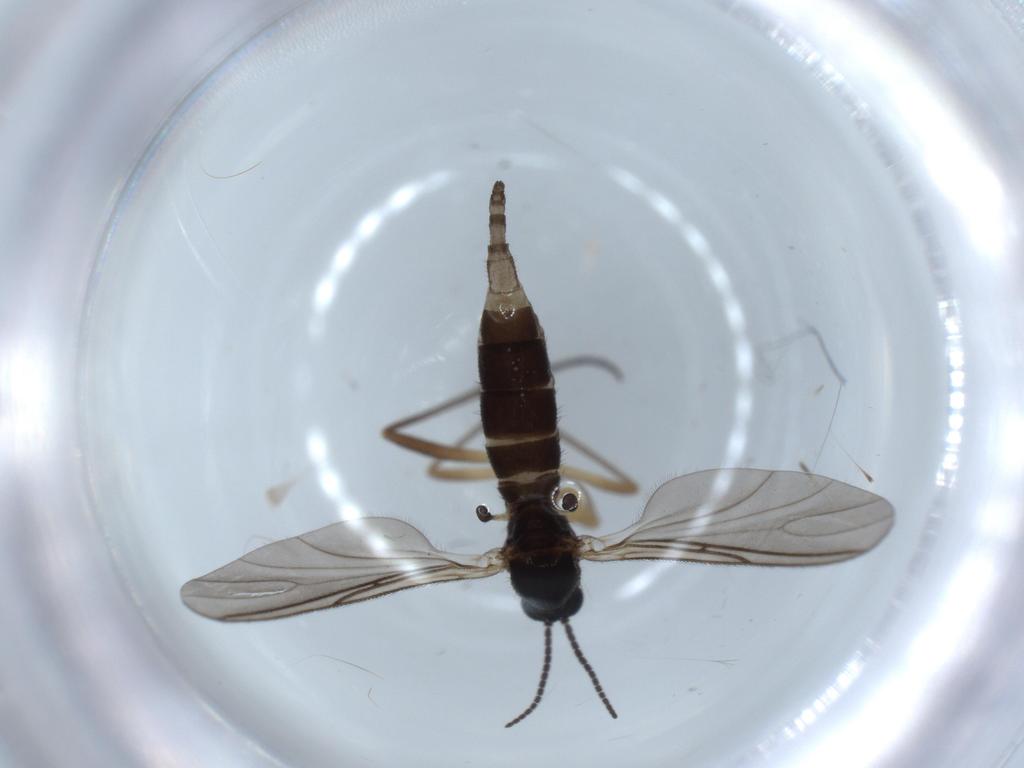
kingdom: Animalia
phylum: Arthropoda
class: Insecta
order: Diptera
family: Sciaridae
